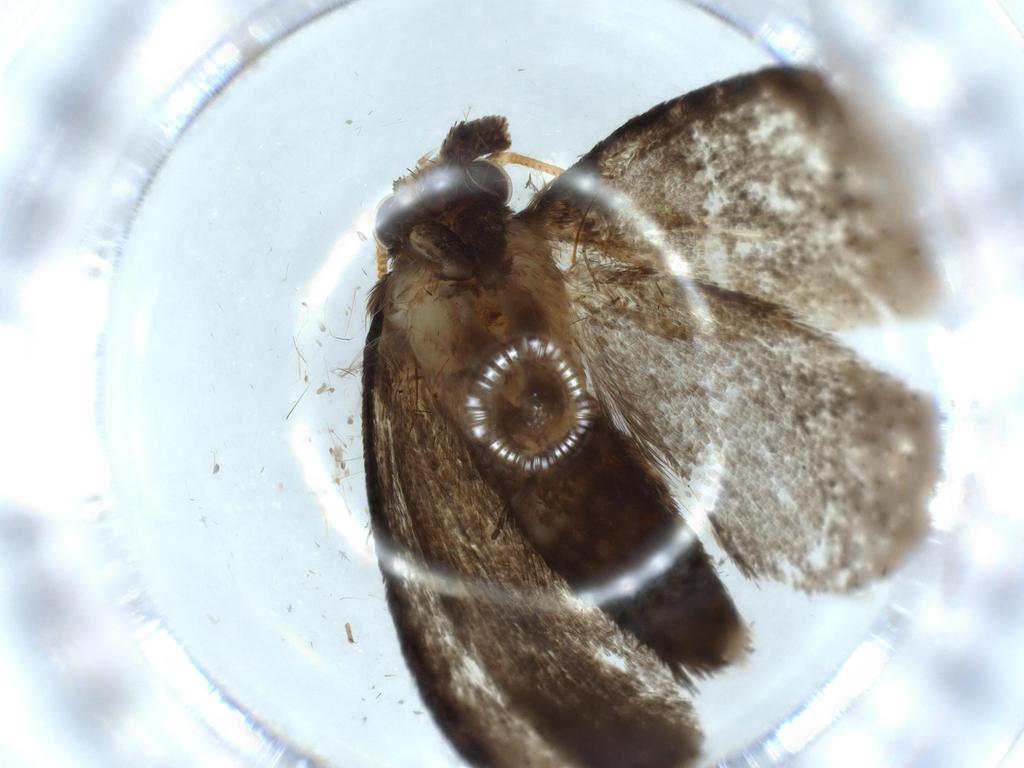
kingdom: Animalia
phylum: Arthropoda
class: Insecta
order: Lepidoptera
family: Tineidae
